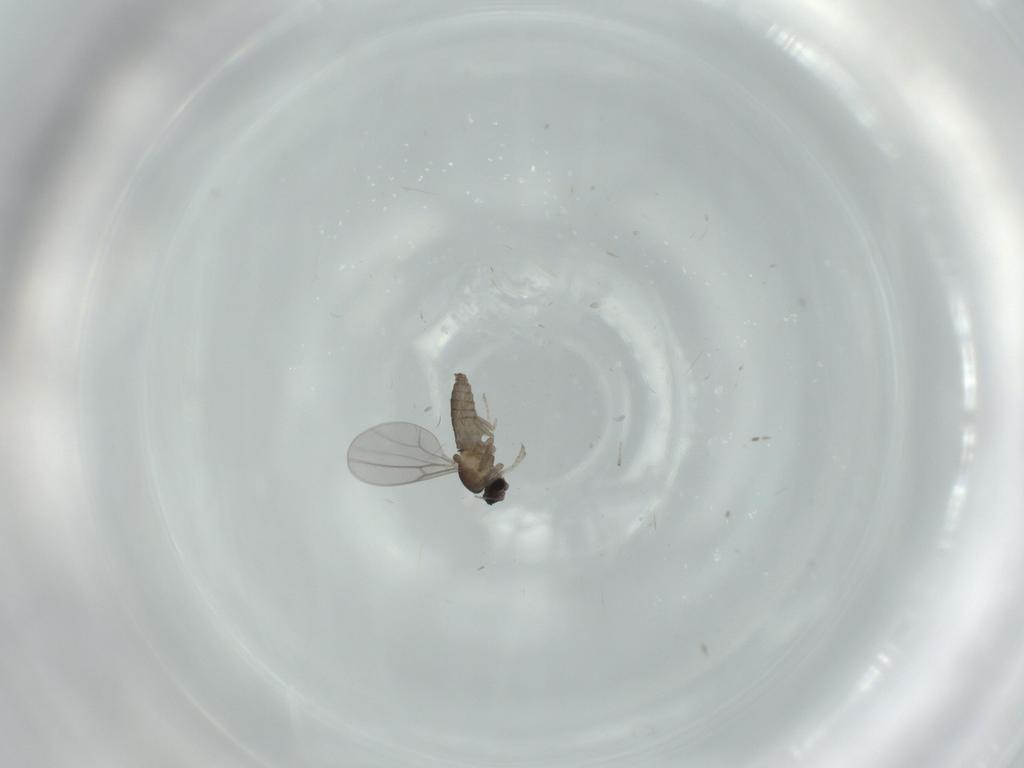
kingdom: Animalia
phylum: Arthropoda
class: Insecta
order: Diptera
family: Cecidomyiidae
